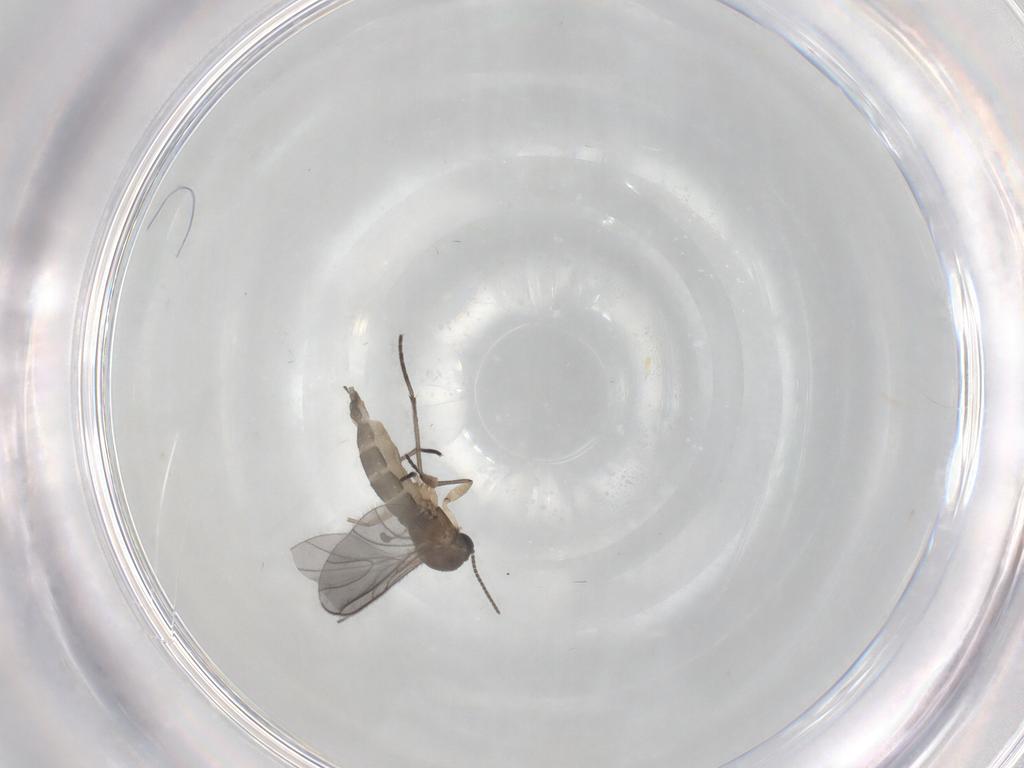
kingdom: Animalia
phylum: Arthropoda
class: Insecta
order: Diptera
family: Sciaridae
